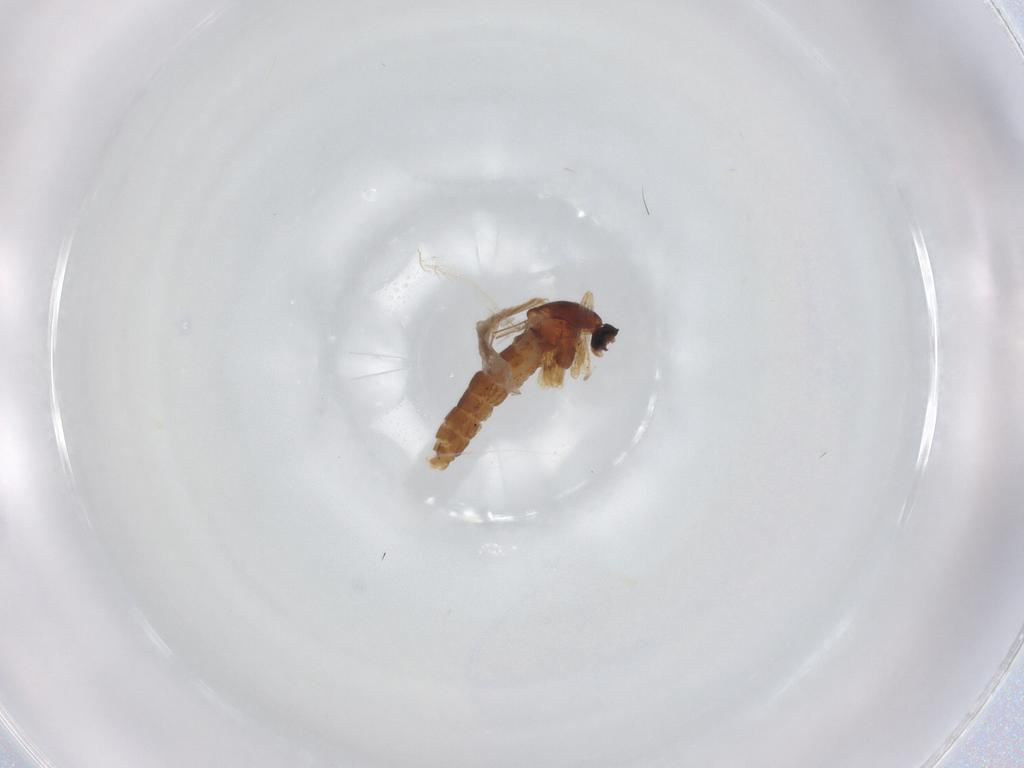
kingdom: Animalia
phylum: Arthropoda
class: Insecta
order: Diptera
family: Cecidomyiidae
